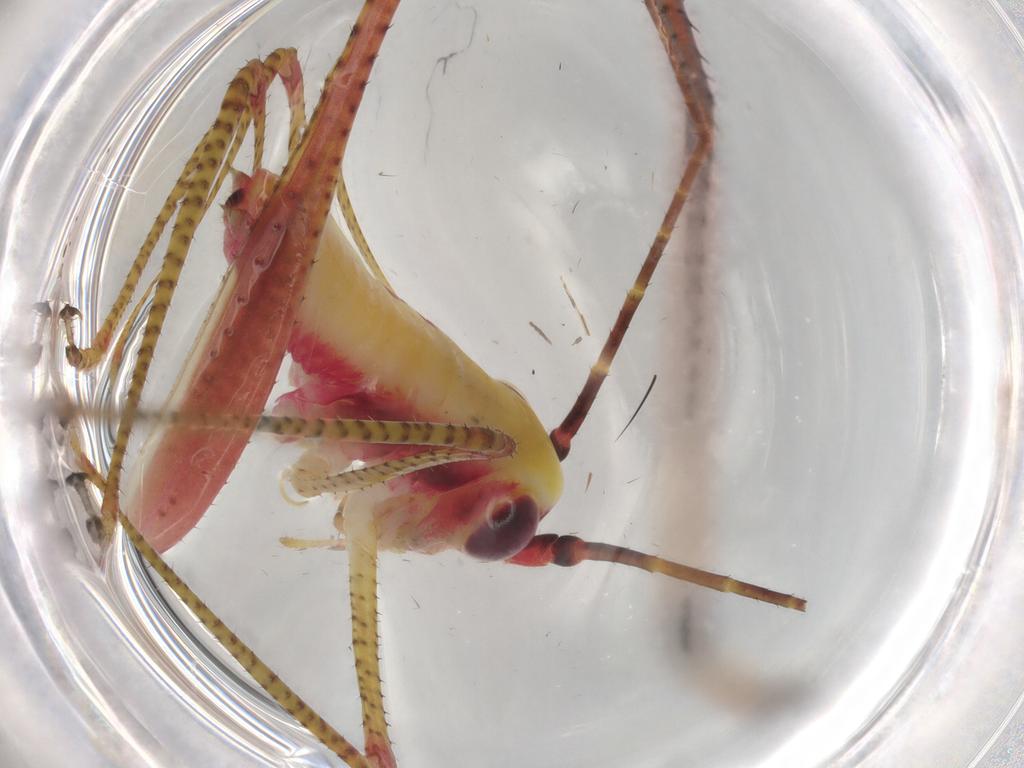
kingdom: Animalia
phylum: Arthropoda
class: Insecta
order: Orthoptera
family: Tettigoniidae
